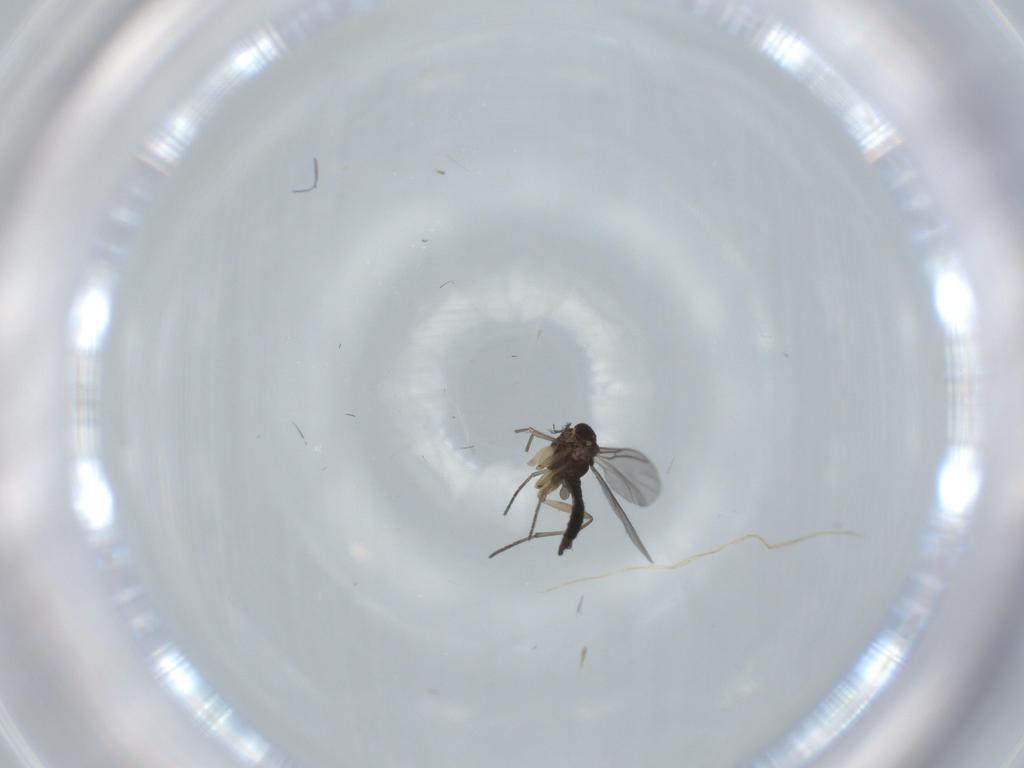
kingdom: Animalia
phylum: Arthropoda
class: Insecta
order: Diptera
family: Sciaridae
